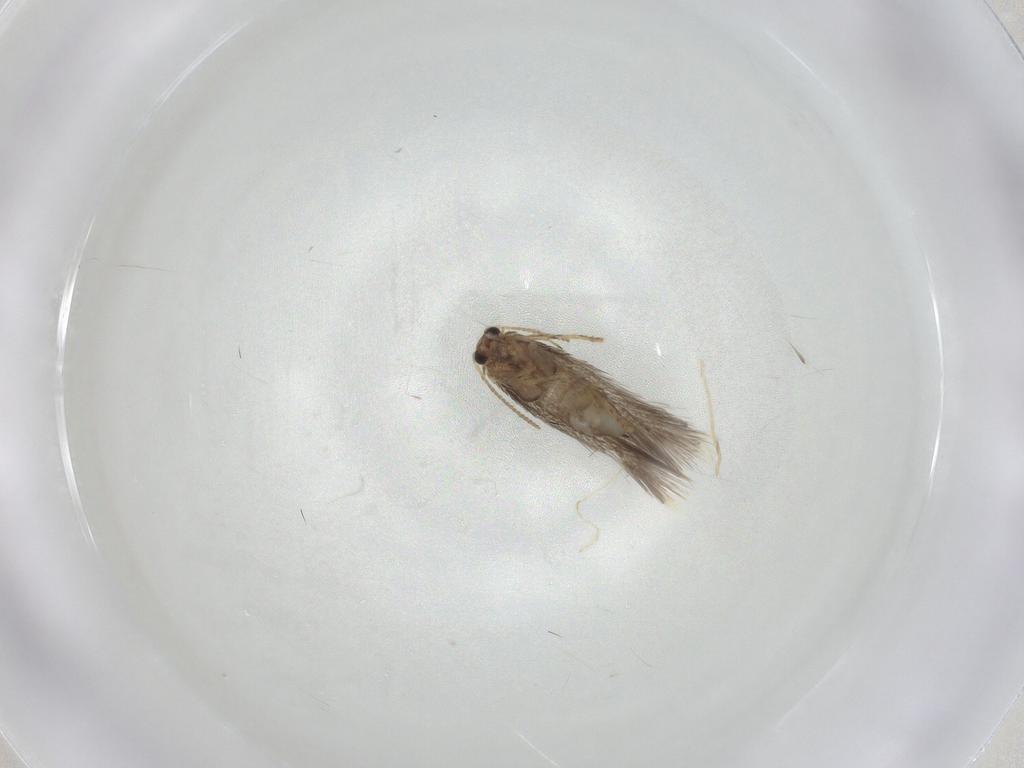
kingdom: Animalia
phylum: Arthropoda
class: Insecta
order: Lepidoptera
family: Nepticulidae
